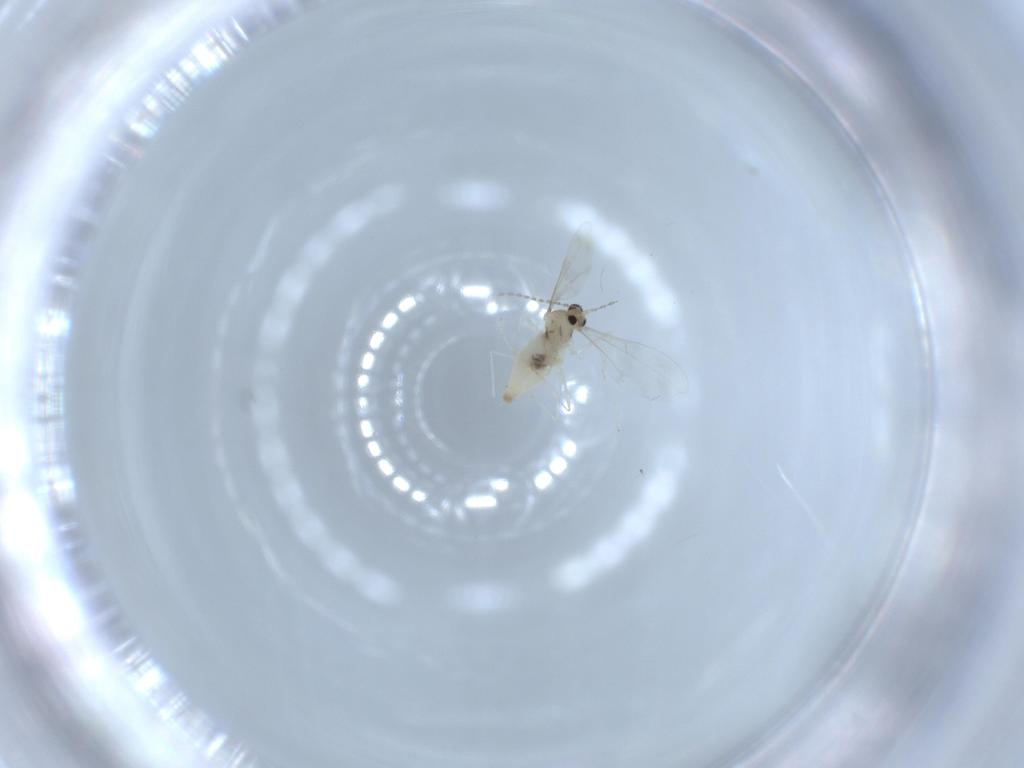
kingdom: Animalia
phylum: Arthropoda
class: Insecta
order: Diptera
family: Cecidomyiidae
